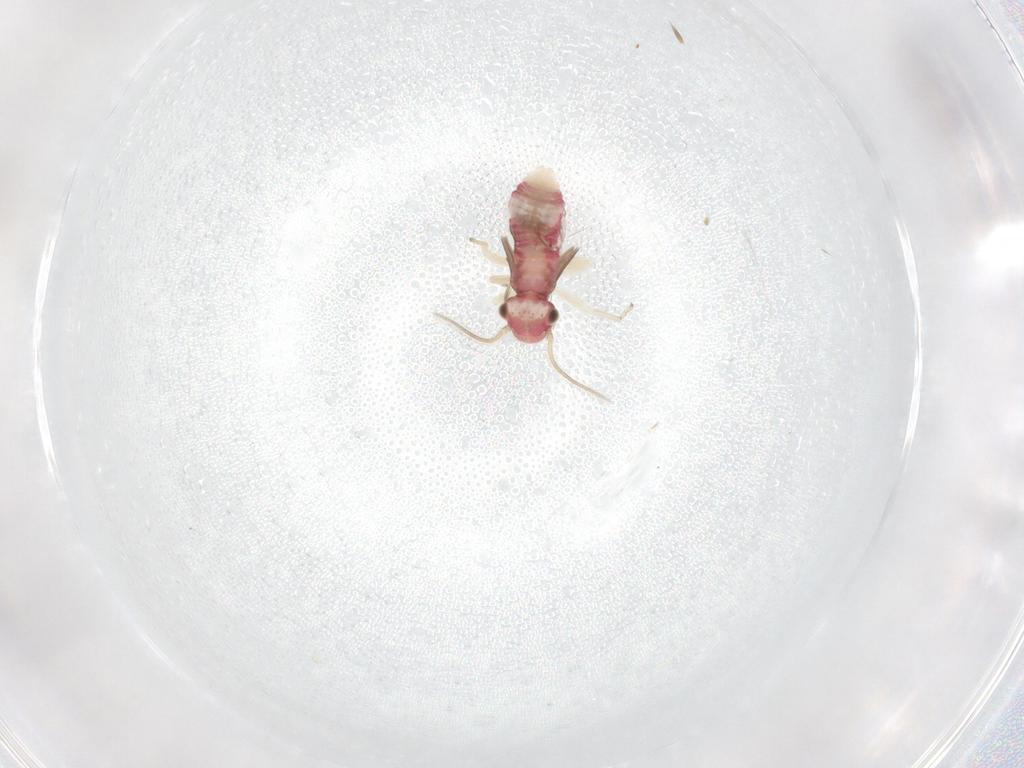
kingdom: Animalia
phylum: Arthropoda
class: Insecta
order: Psocodea
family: Caeciliusidae
